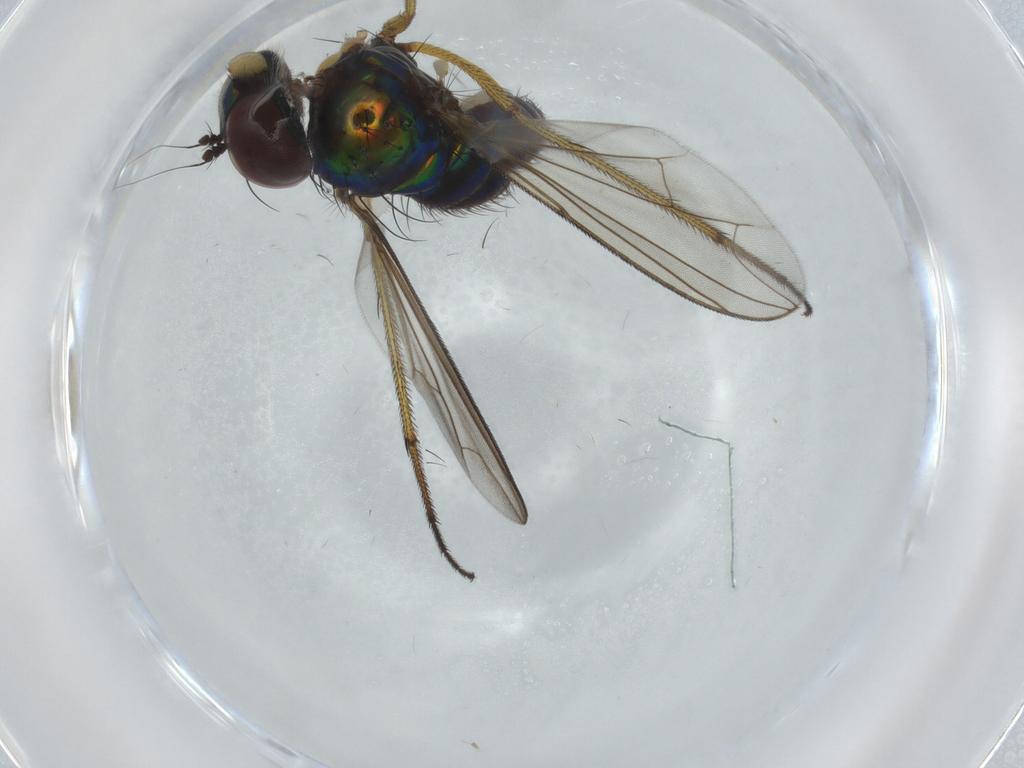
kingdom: Animalia
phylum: Arthropoda
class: Insecta
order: Diptera
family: Dolichopodidae
